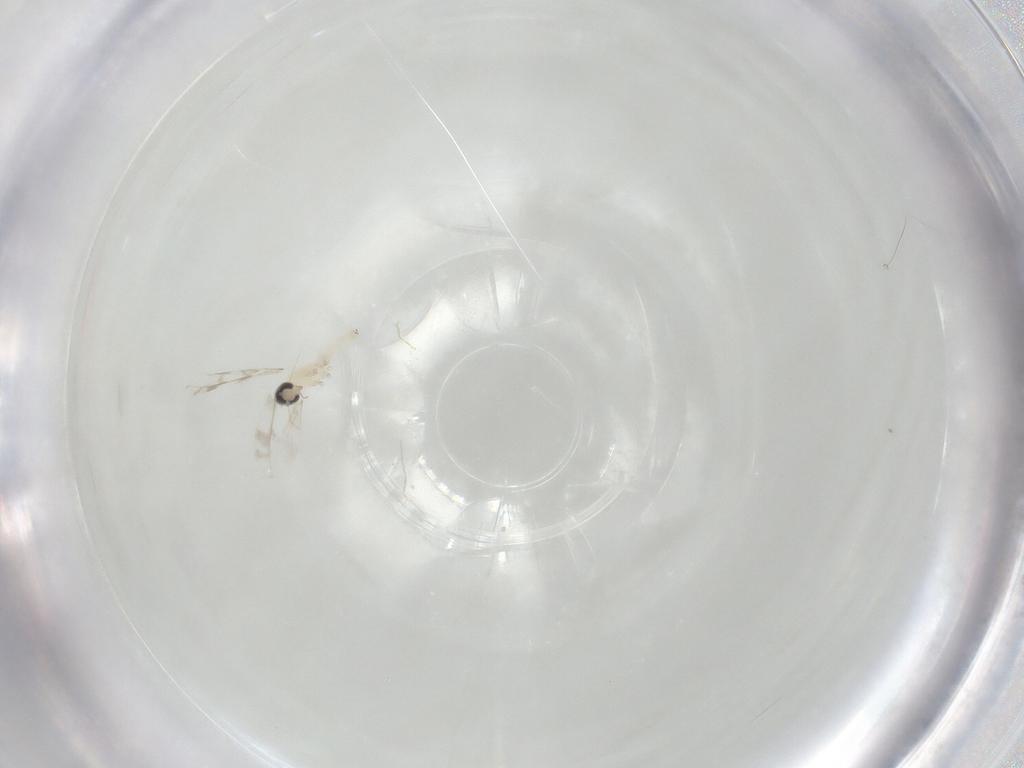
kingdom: Animalia
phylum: Arthropoda
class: Insecta
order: Diptera
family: Cecidomyiidae
